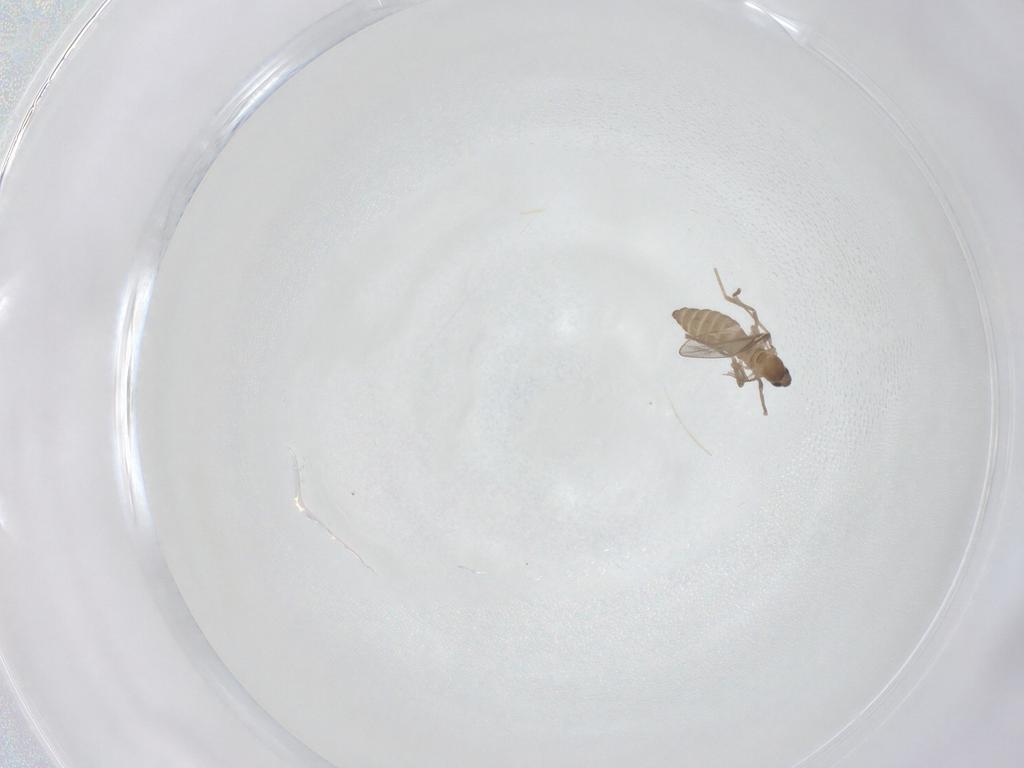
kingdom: Animalia
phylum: Arthropoda
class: Insecta
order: Diptera
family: Cecidomyiidae
